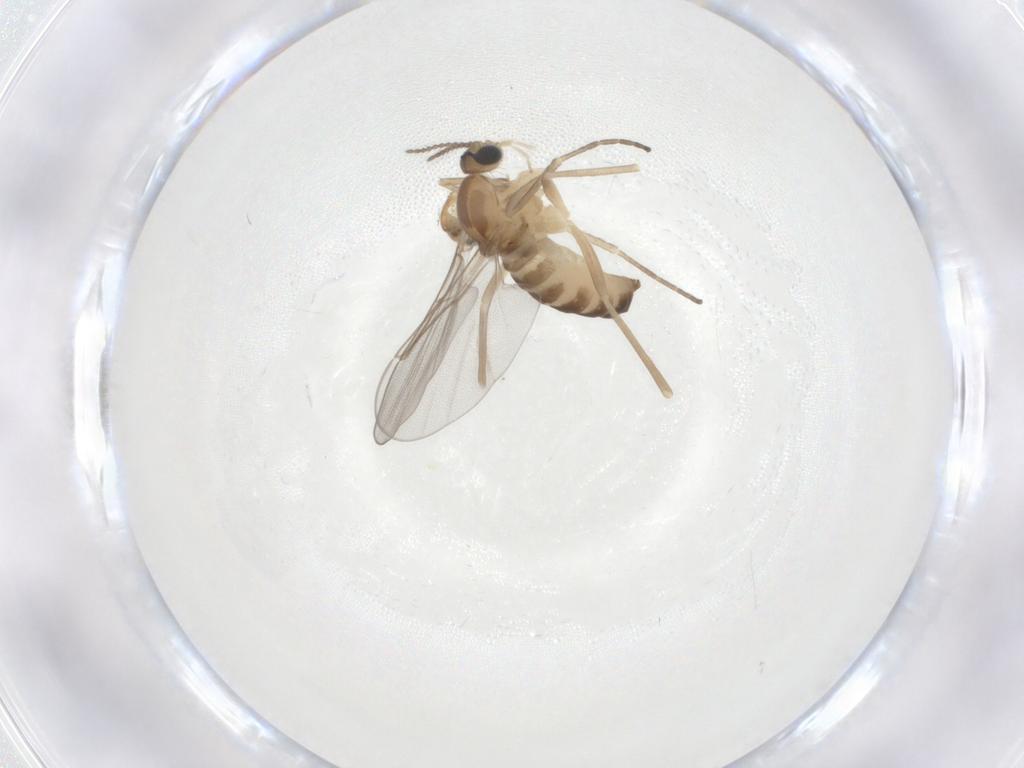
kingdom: Animalia
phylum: Arthropoda
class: Insecta
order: Diptera
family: Cecidomyiidae
